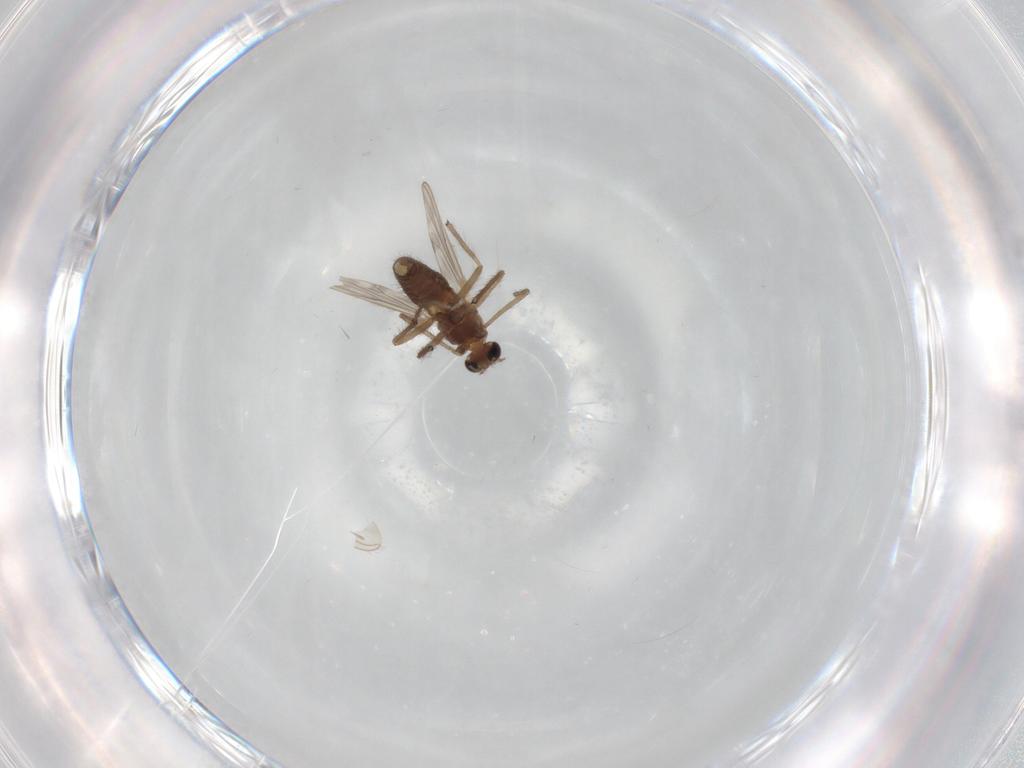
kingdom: Animalia
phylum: Arthropoda
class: Insecta
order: Diptera
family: Chironomidae
